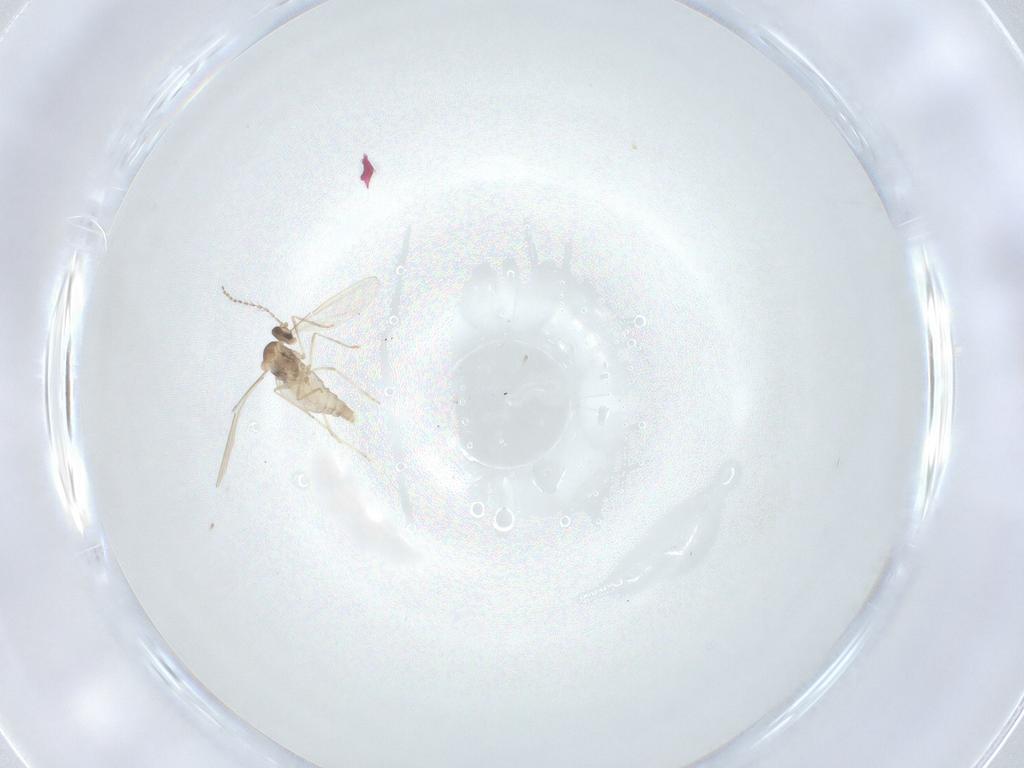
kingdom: Animalia
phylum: Arthropoda
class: Insecta
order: Diptera
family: Cecidomyiidae
